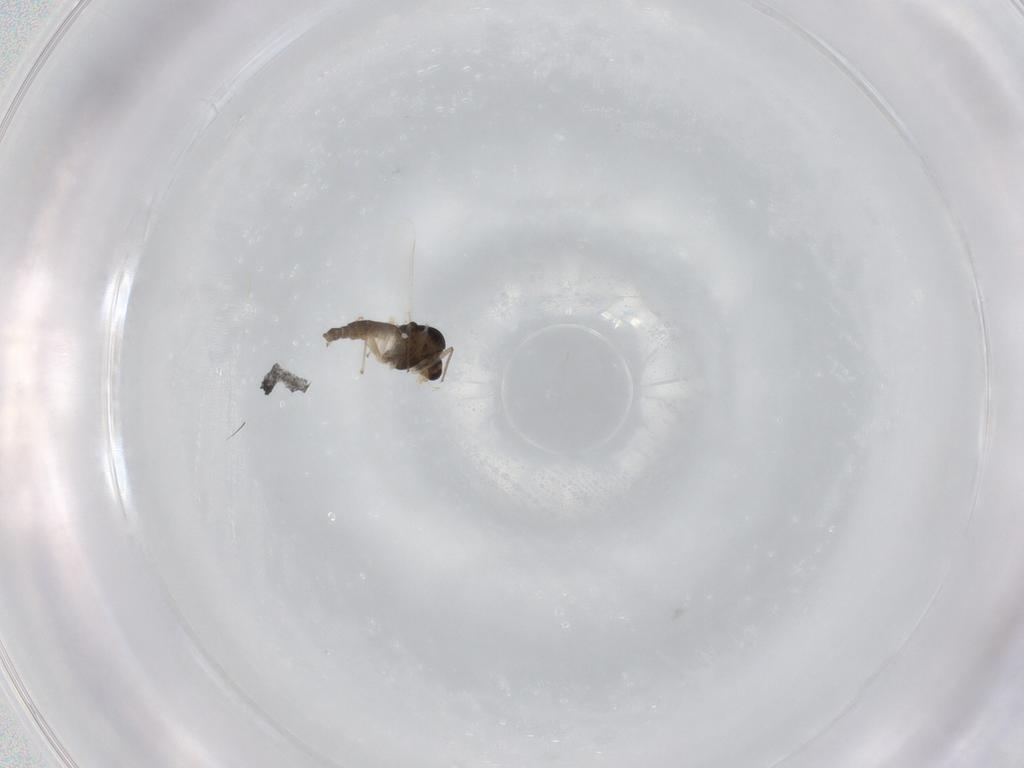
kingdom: Animalia
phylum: Arthropoda
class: Insecta
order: Diptera
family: Chironomidae
